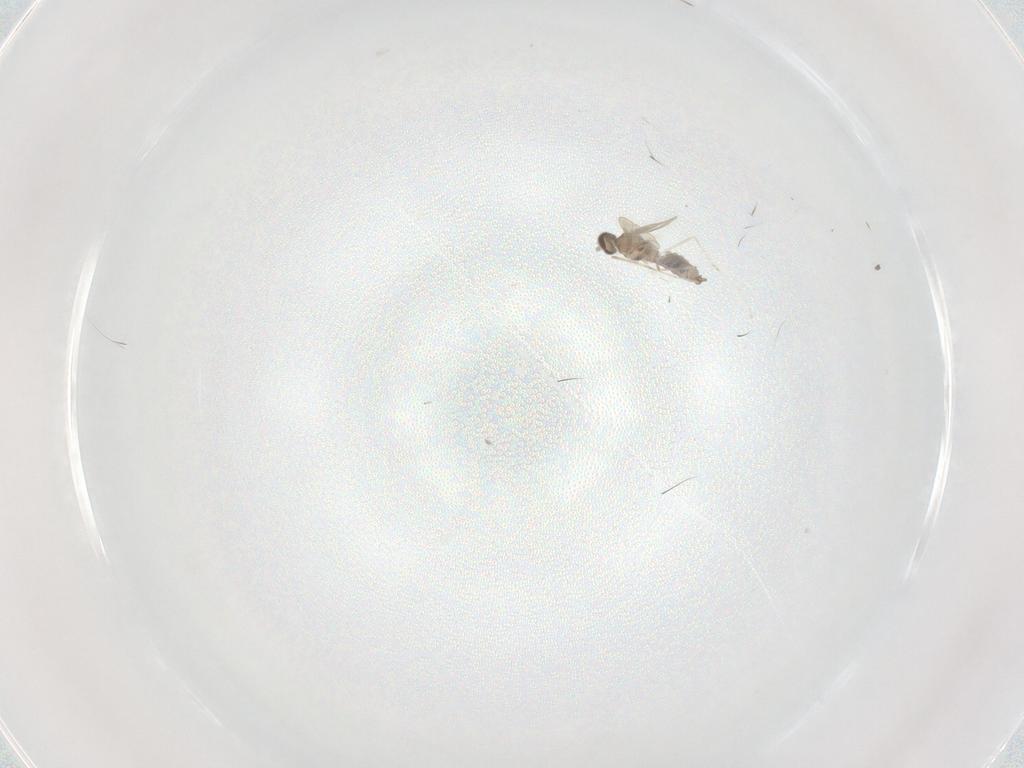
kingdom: Animalia
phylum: Arthropoda
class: Insecta
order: Diptera
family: Cecidomyiidae
